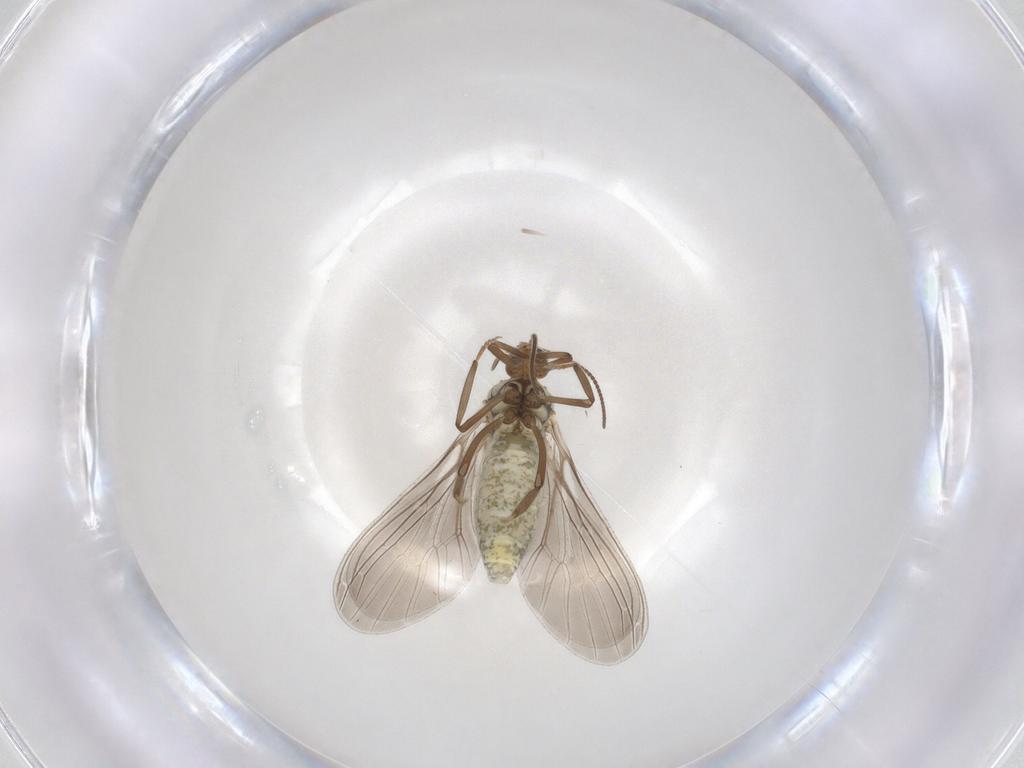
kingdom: Animalia
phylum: Arthropoda
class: Insecta
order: Neuroptera
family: Coniopterygidae
